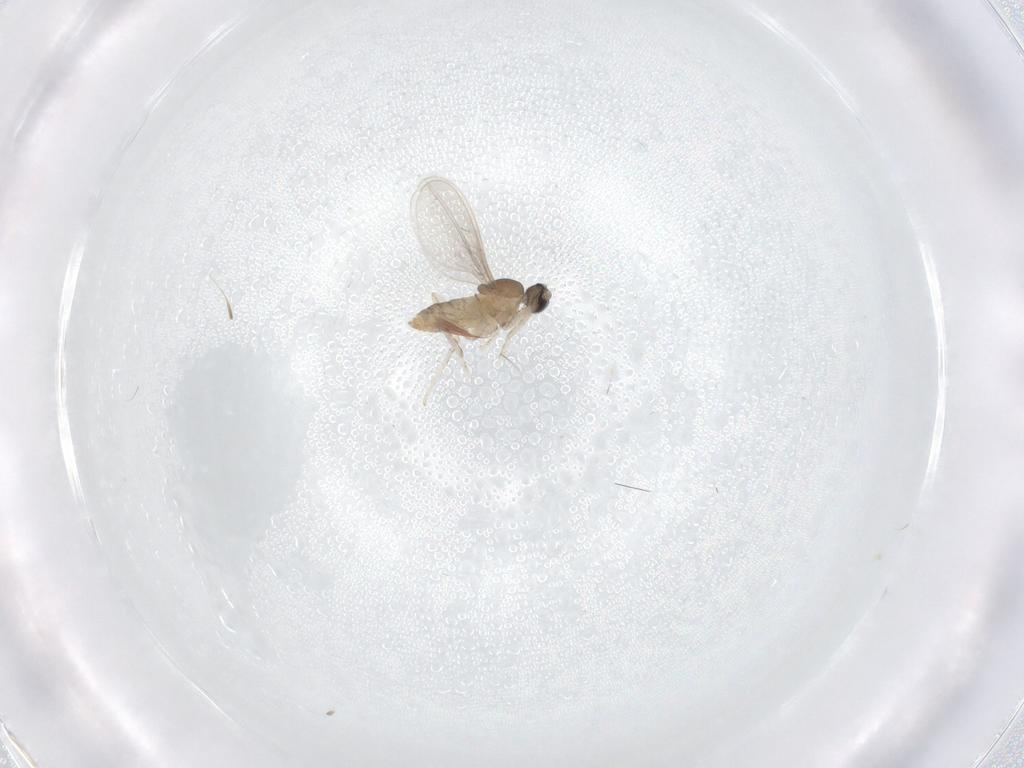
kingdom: Animalia
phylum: Arthropoda
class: Insecta
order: Diptera
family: Cecidomyiidae
